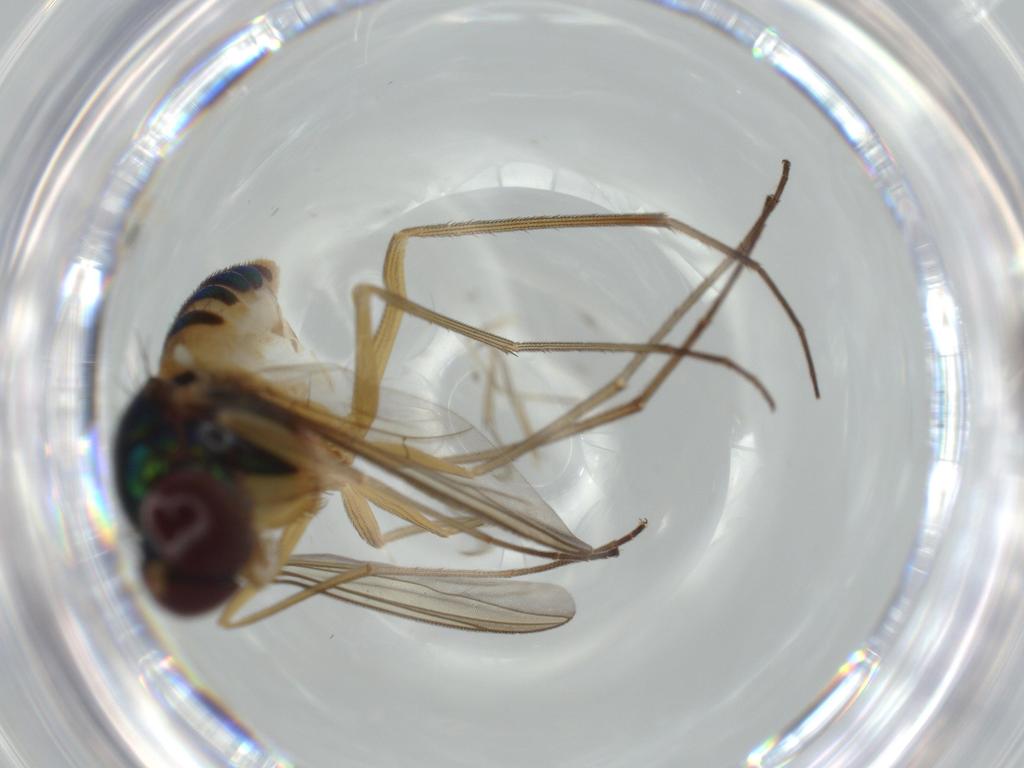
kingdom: Animalia
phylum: Arthropoda
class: Insecta
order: Diptera
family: Dolichopodidae
